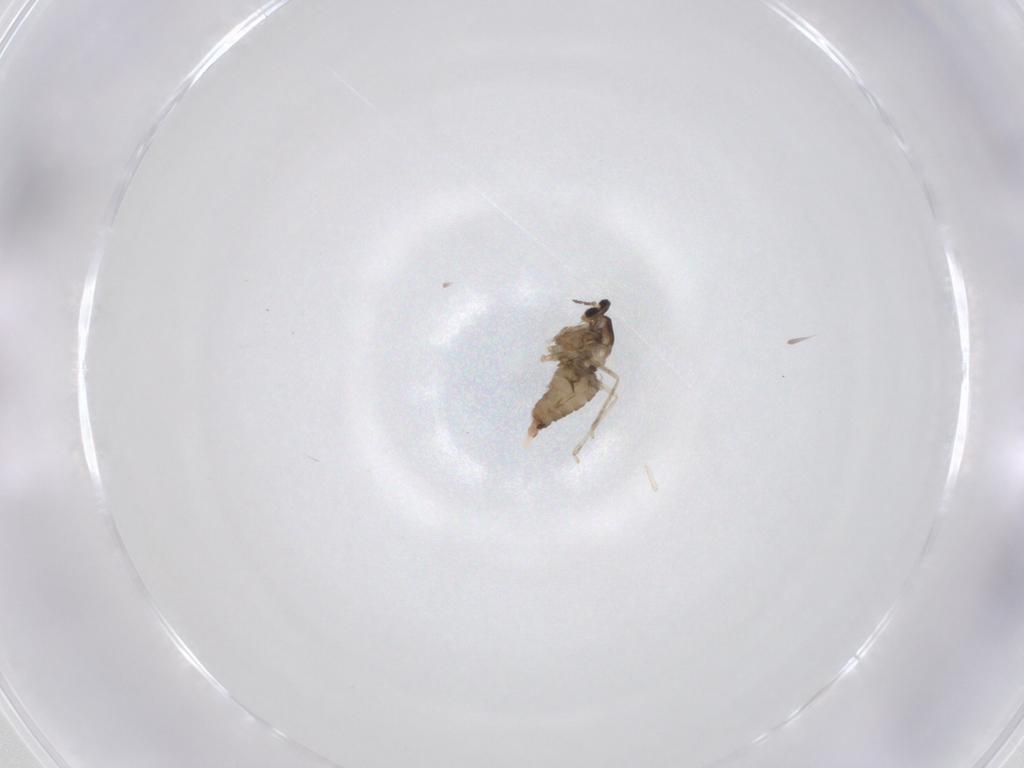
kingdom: Animalia
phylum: Arthropoda
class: Insecta
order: Diptera
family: Cecidomyiidae
